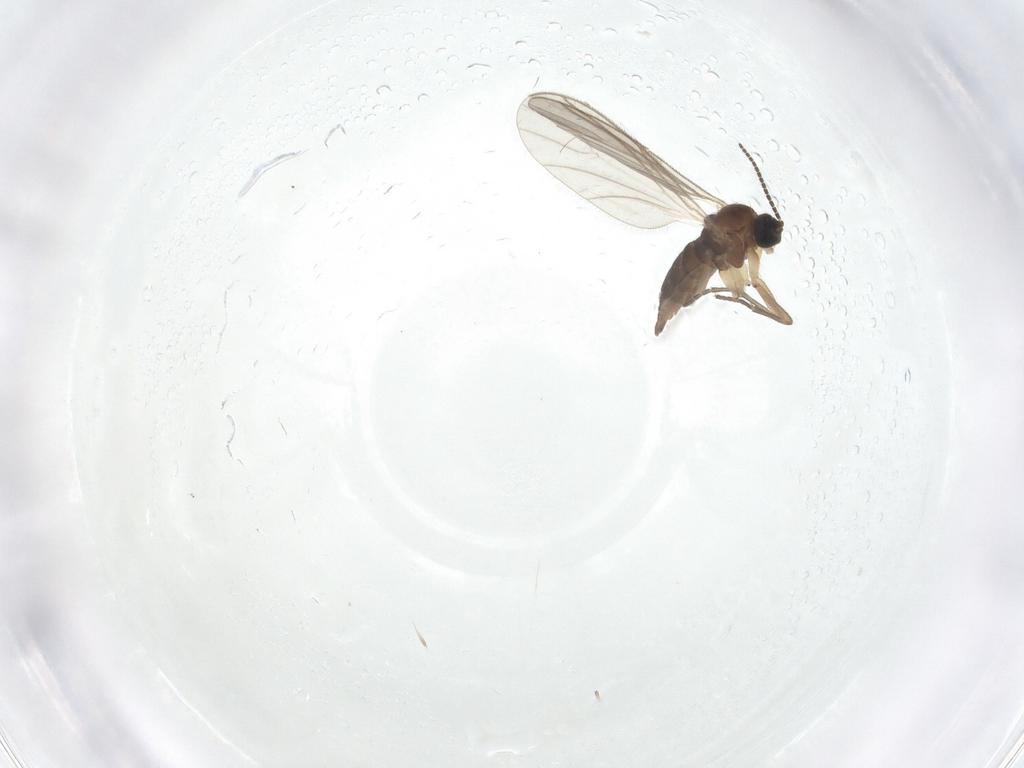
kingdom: Animalia
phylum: Arthropoda
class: Insecta
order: Diptera
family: Sciaridae
